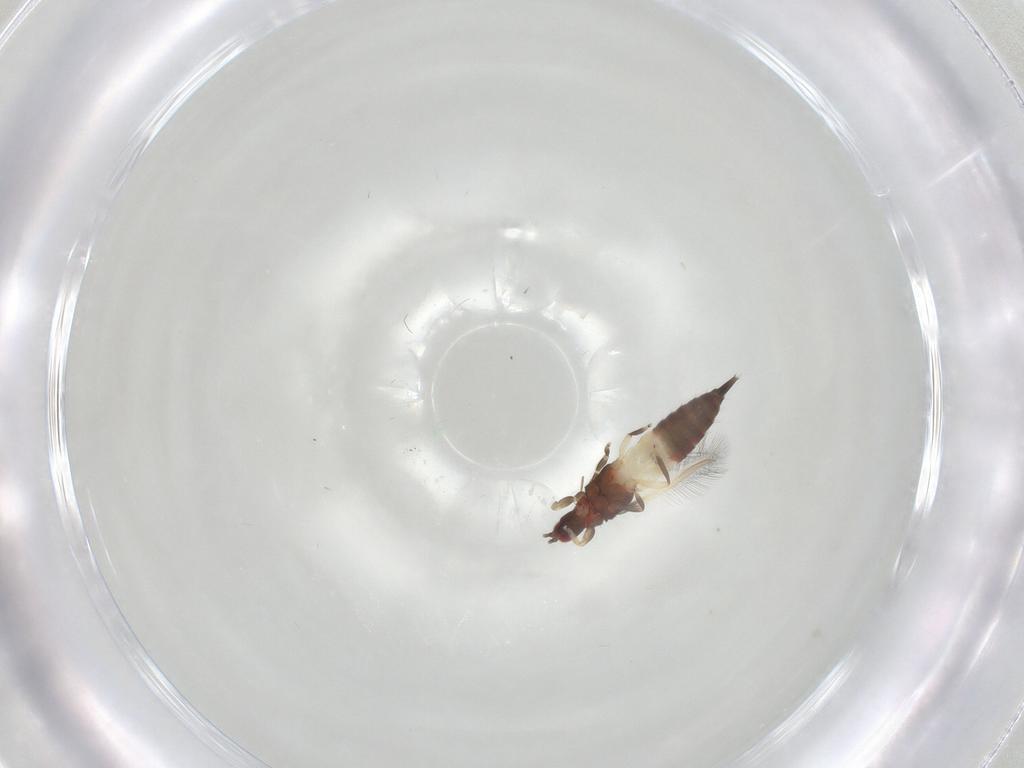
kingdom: Animalia
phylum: Arthropoda
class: Insecta
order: Thysanoptera
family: Phlaeothripidae
